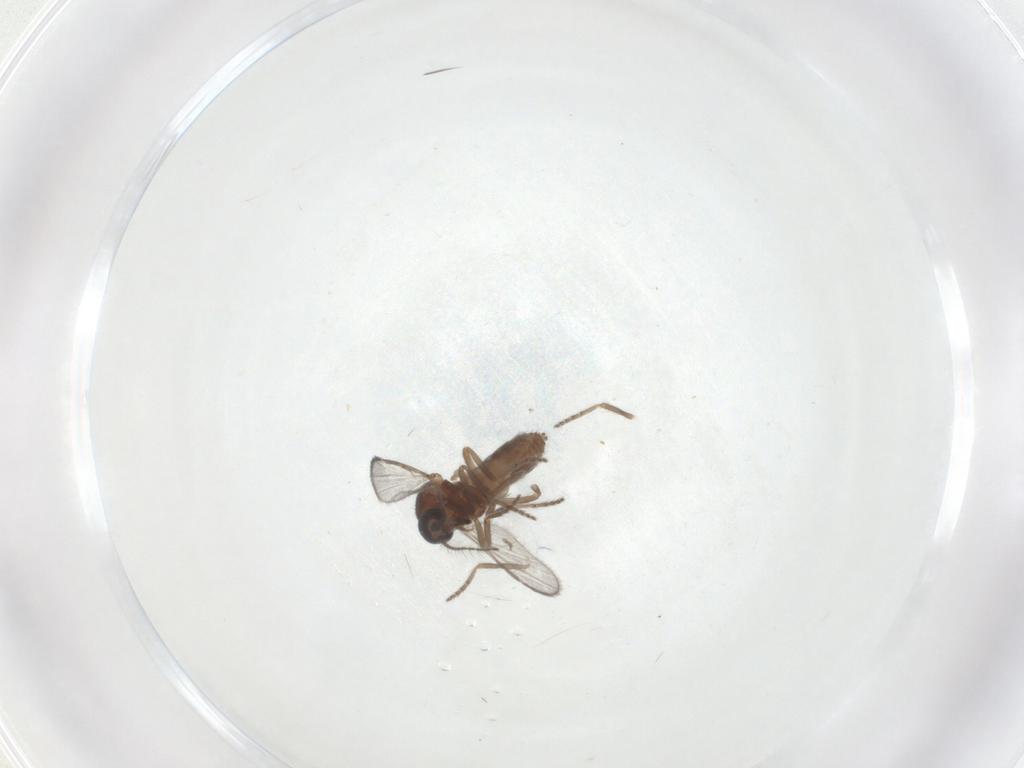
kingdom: Animalia
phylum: Arthropoda
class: Insecta
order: Diptera
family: Ceratopogonidae
